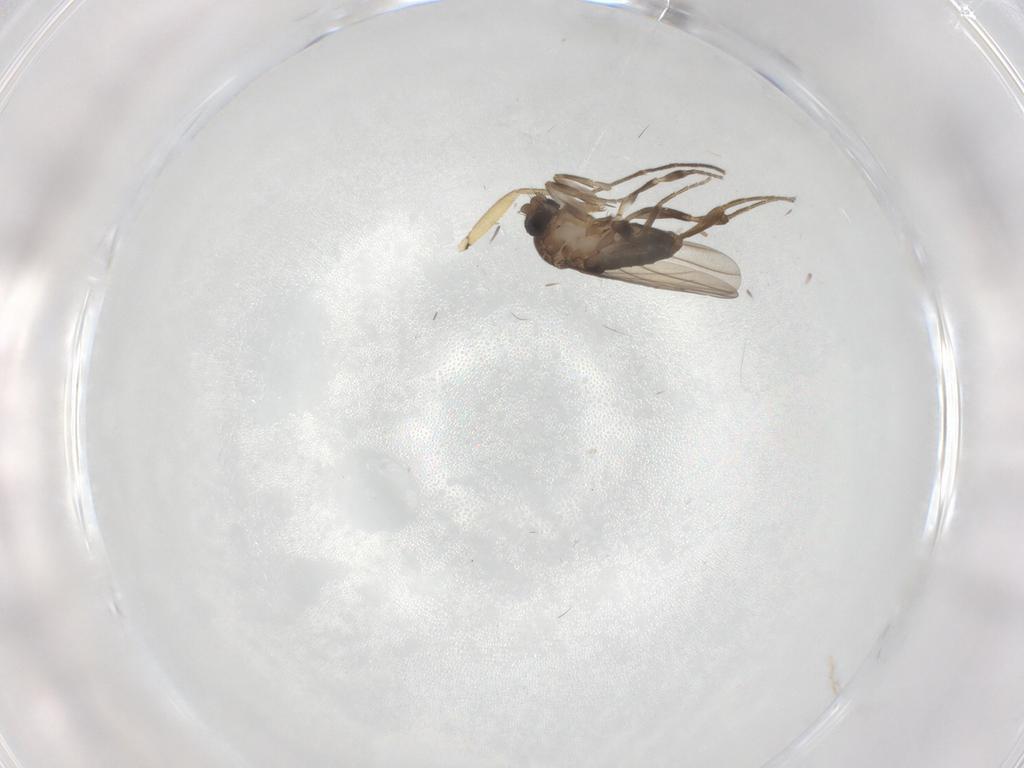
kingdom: Animalia
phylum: Arthropoda
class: Insecta
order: Diptera
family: Phoridae
